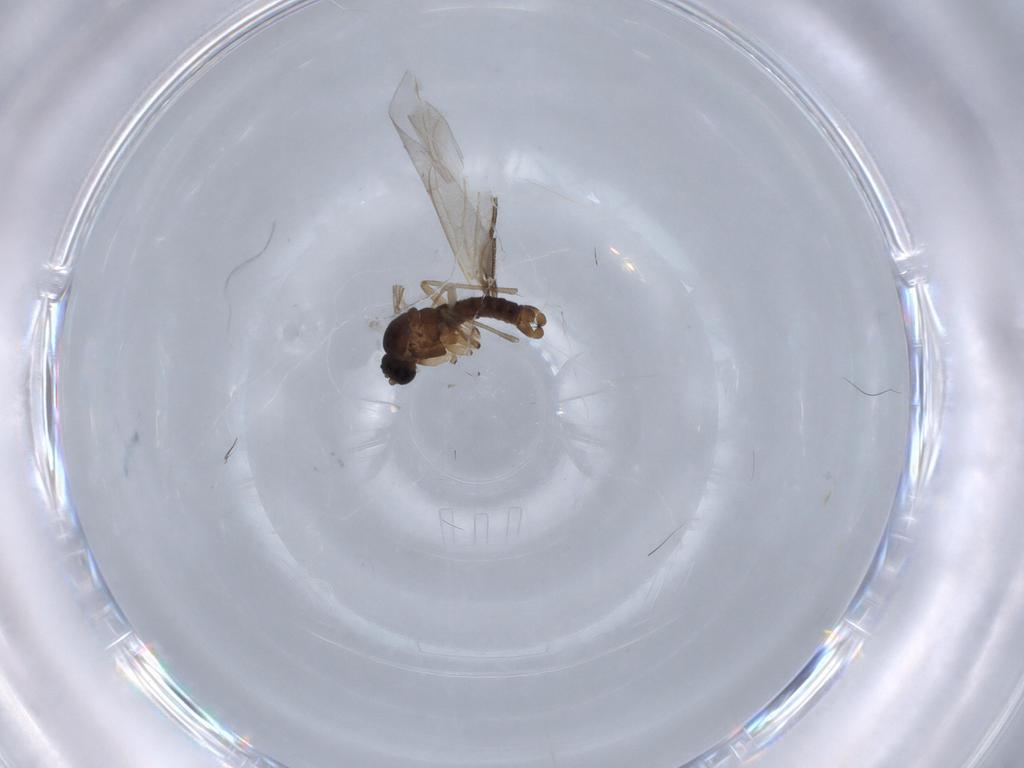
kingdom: Animalia
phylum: Arthropoda
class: Insecta
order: Diptera
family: Sciaridae
